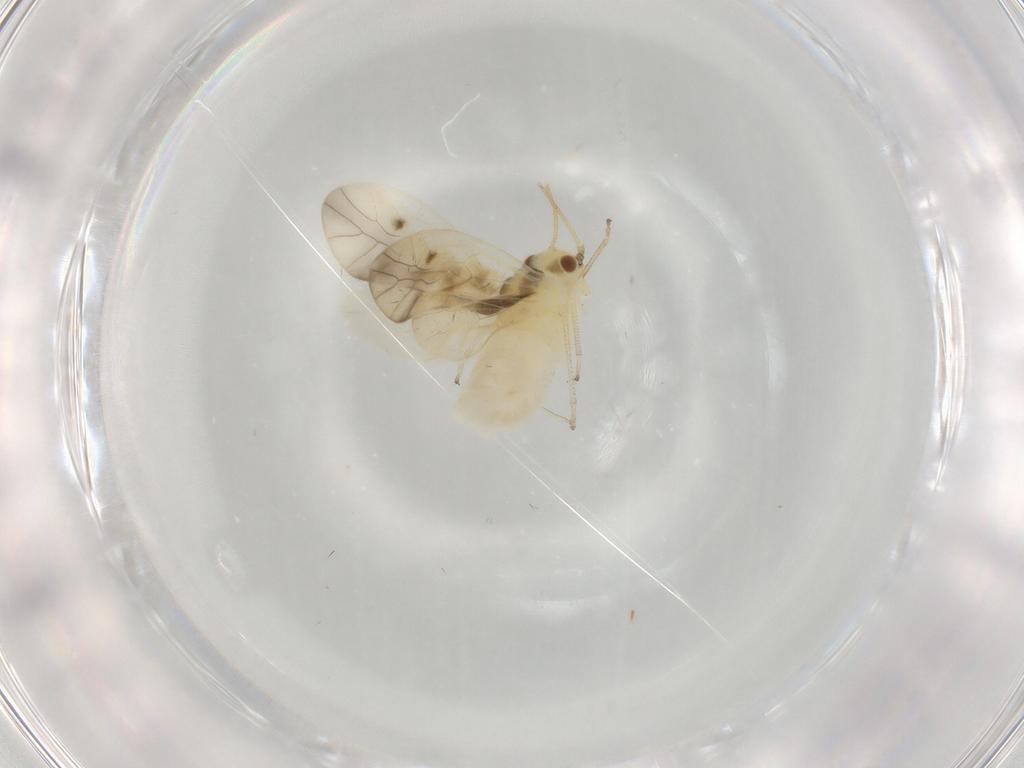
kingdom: Animalia
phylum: Arthropoda
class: Insecta
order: Psocodea
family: Caeciliusidae
